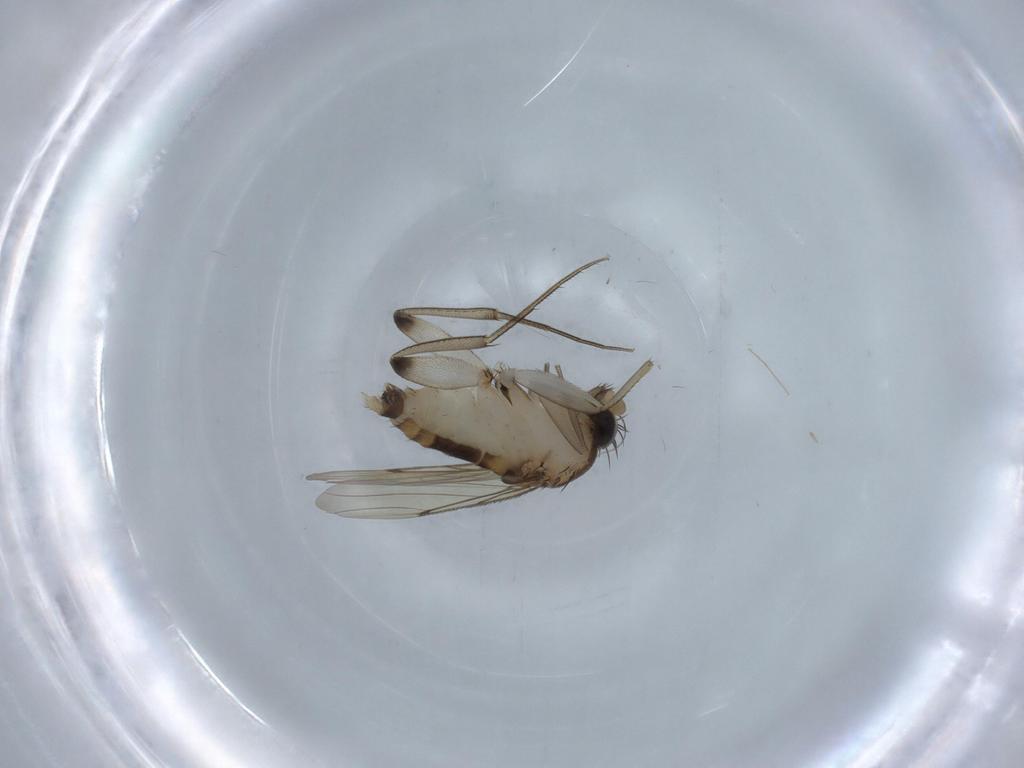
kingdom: Animalia
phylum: Arthropoda
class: Insecta
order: Diptera
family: Ceratopogonidae
